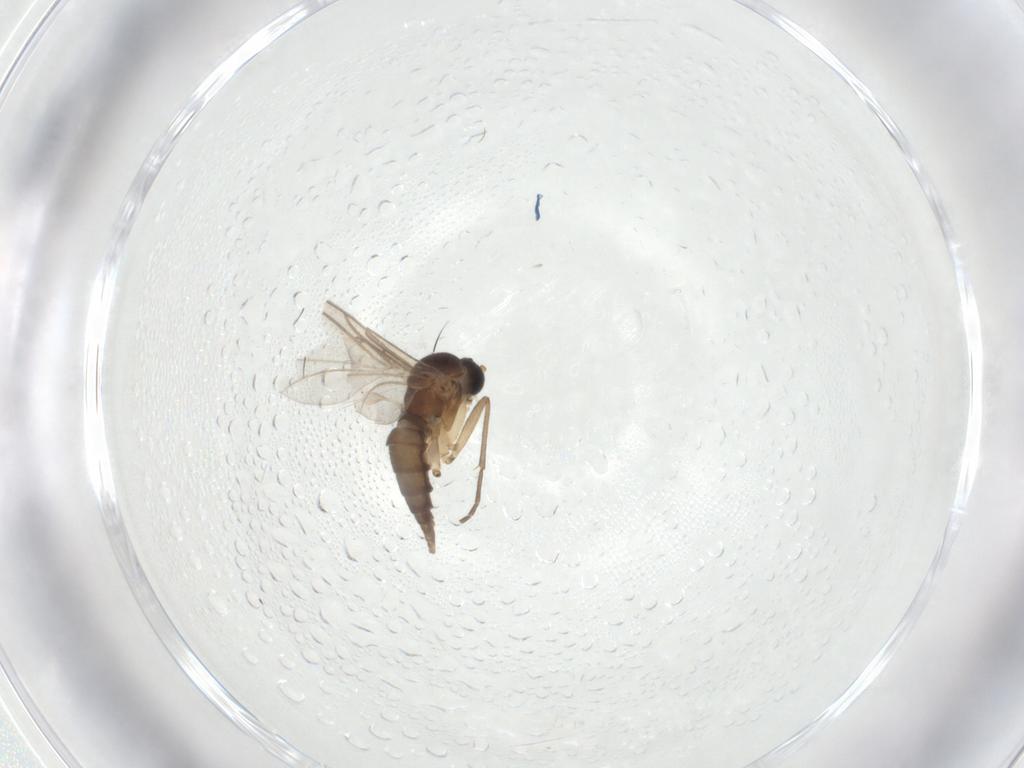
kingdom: Animalia
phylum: Arthropoda
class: Insecta
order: Diptera
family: Sciaridae
